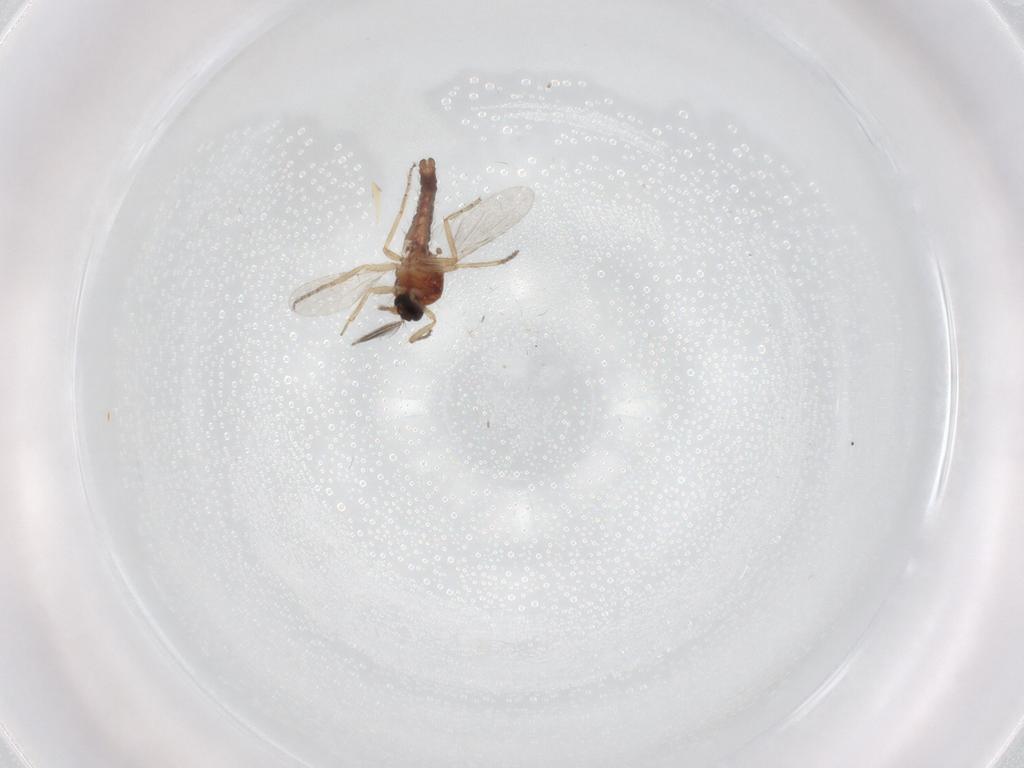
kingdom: Animalia
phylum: Arthropoda
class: Insecta
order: Diptera
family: Ceratopogonidae
